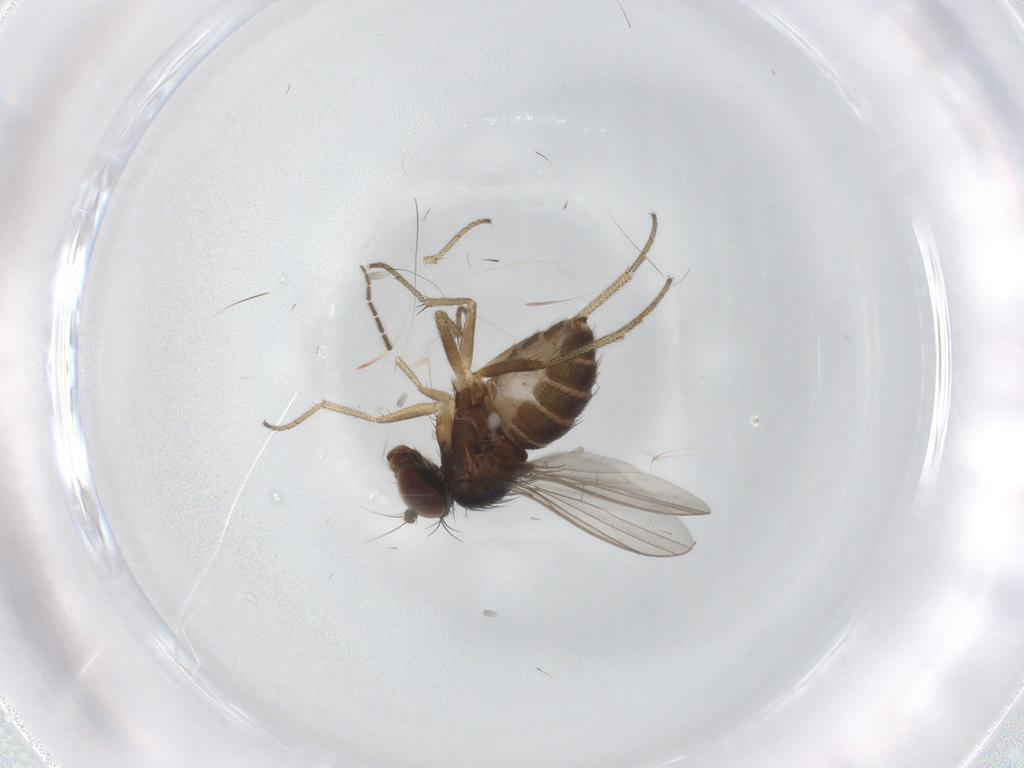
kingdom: Animalia
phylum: Arthropoda
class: Insecta
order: Diptera
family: Cecidomyiidae
